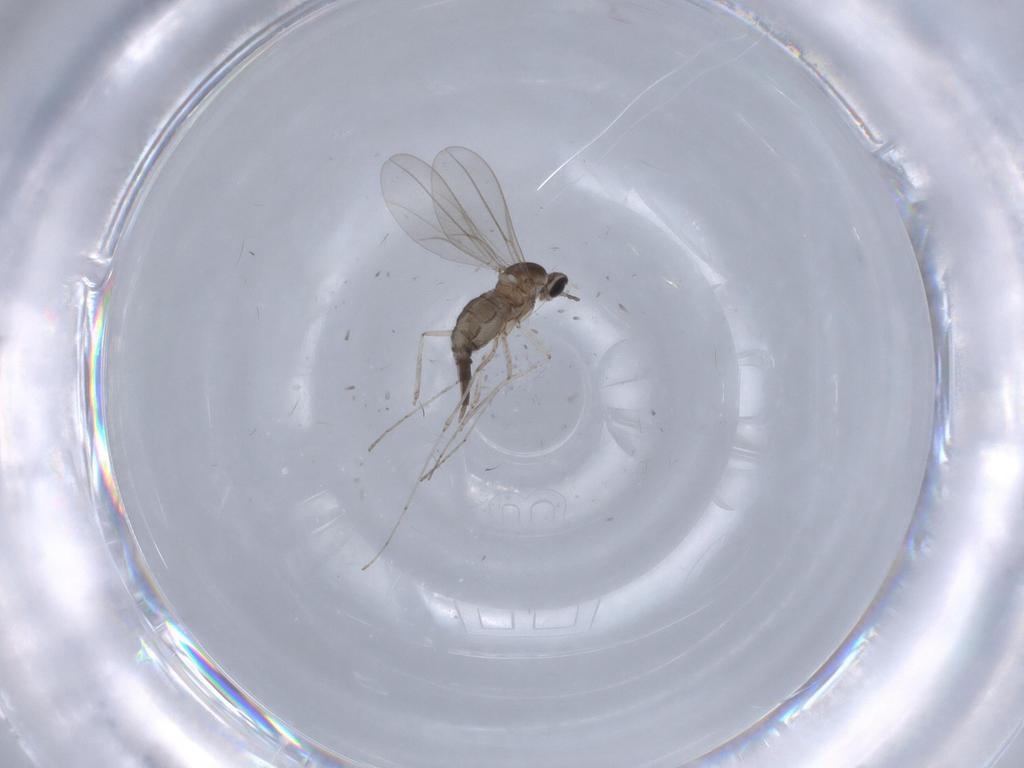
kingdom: Animalia
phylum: Arthropoda
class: Insecta
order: Diptera
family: Cecidomyiidae
